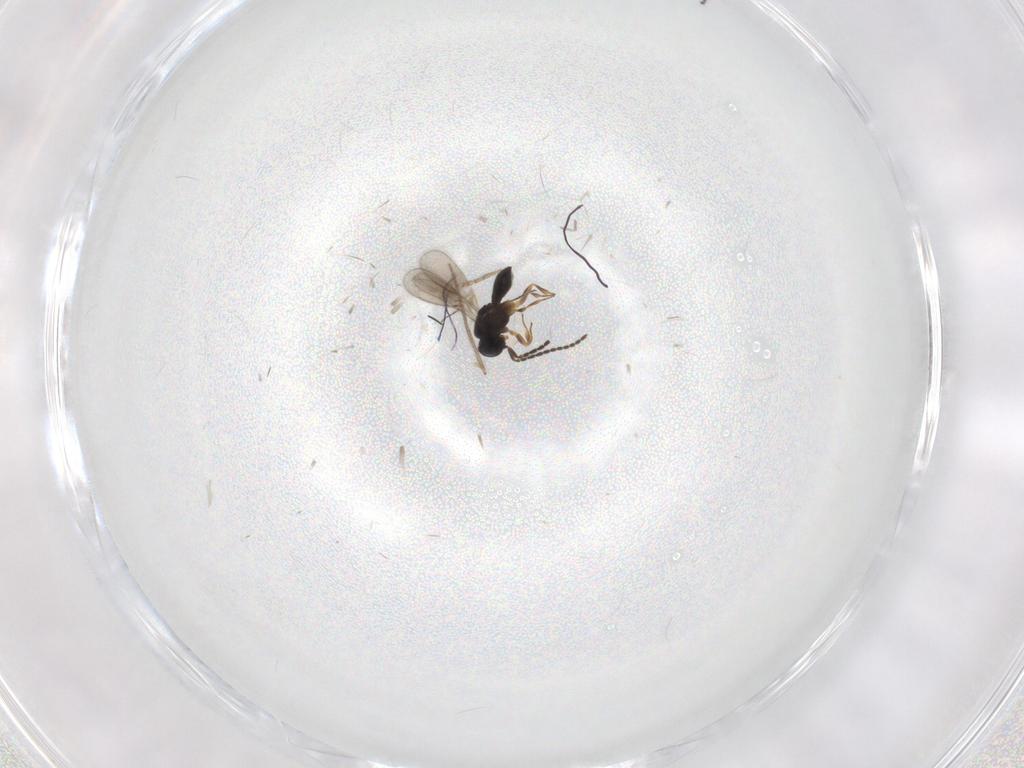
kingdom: Animalia
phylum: Arthropoda
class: Insecta
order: Hymenoptera
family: Scelionidae
